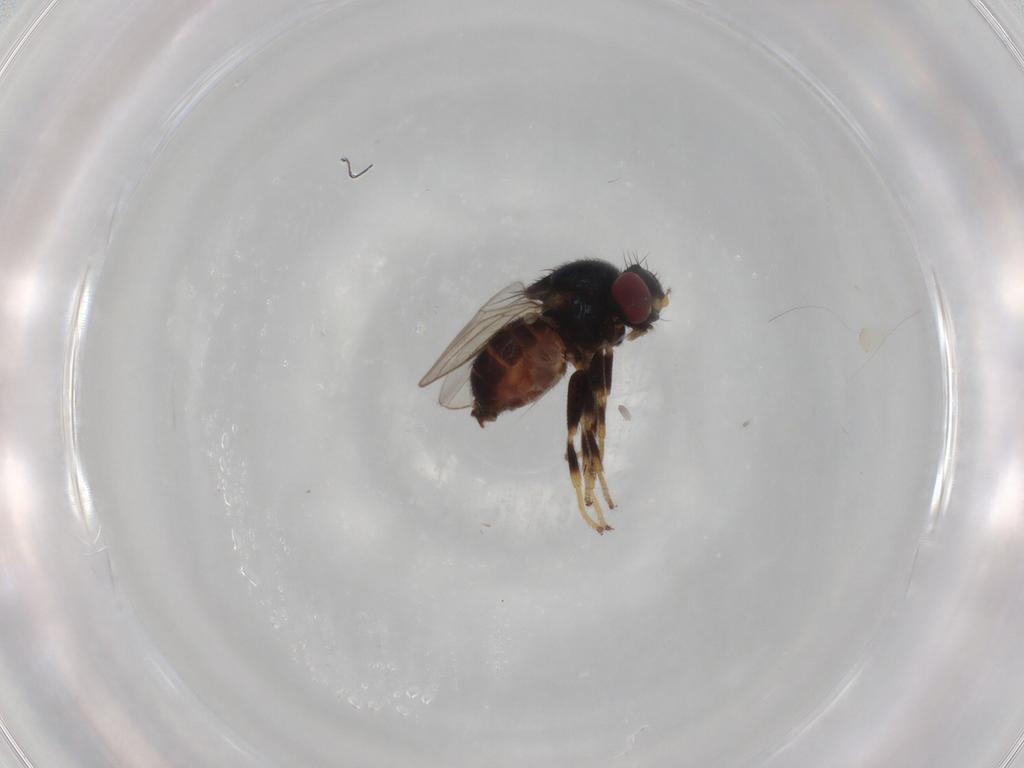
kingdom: Animalia
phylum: Arthropoda
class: Insecta
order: Diptera
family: Chloropidae
